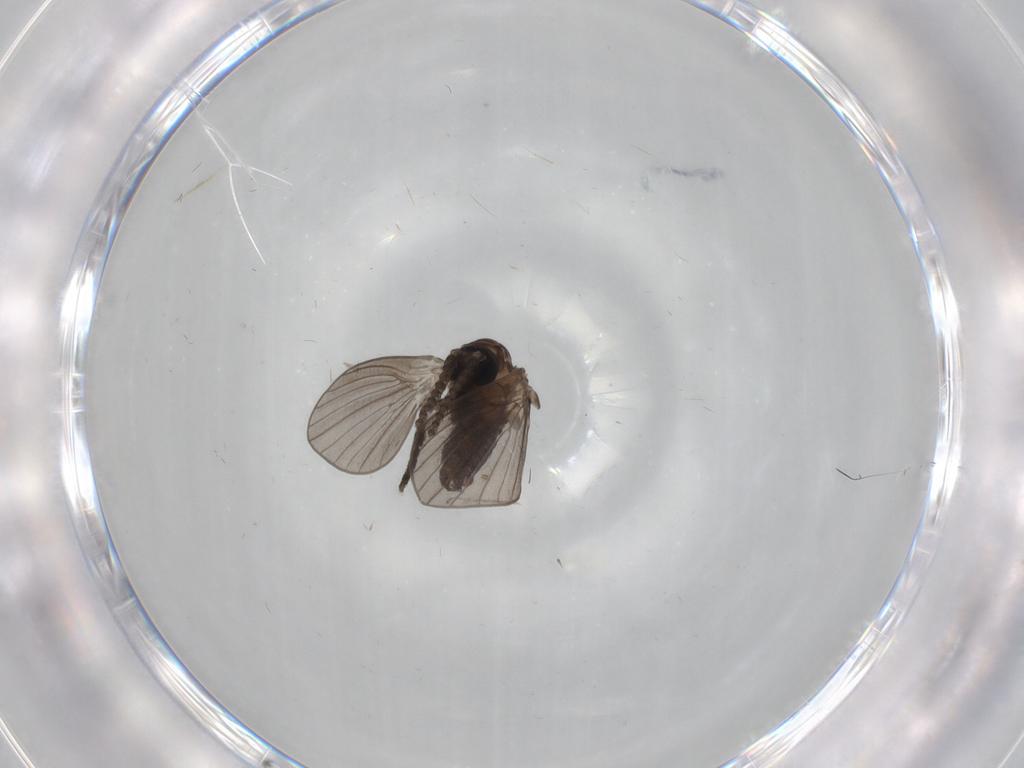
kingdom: Animalia
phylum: Arthropoda
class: Insecta
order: Diptera
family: Psychodidae
